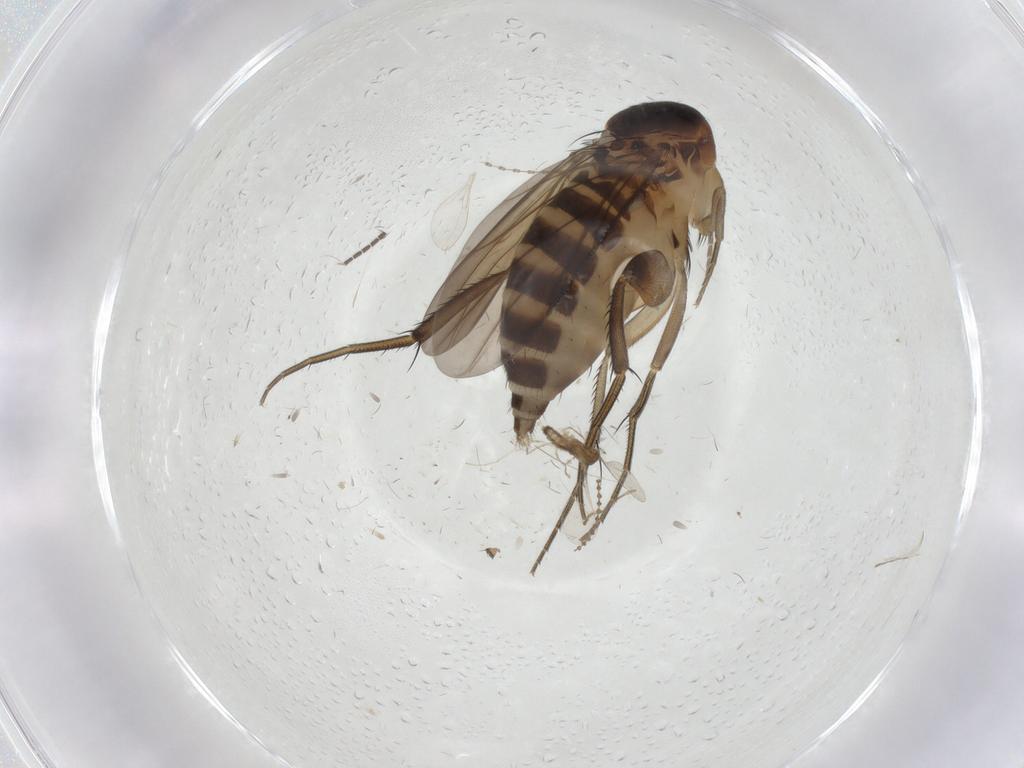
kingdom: Animalia
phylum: Arthropoda
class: Insecta
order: Diptera
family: Phoridae
